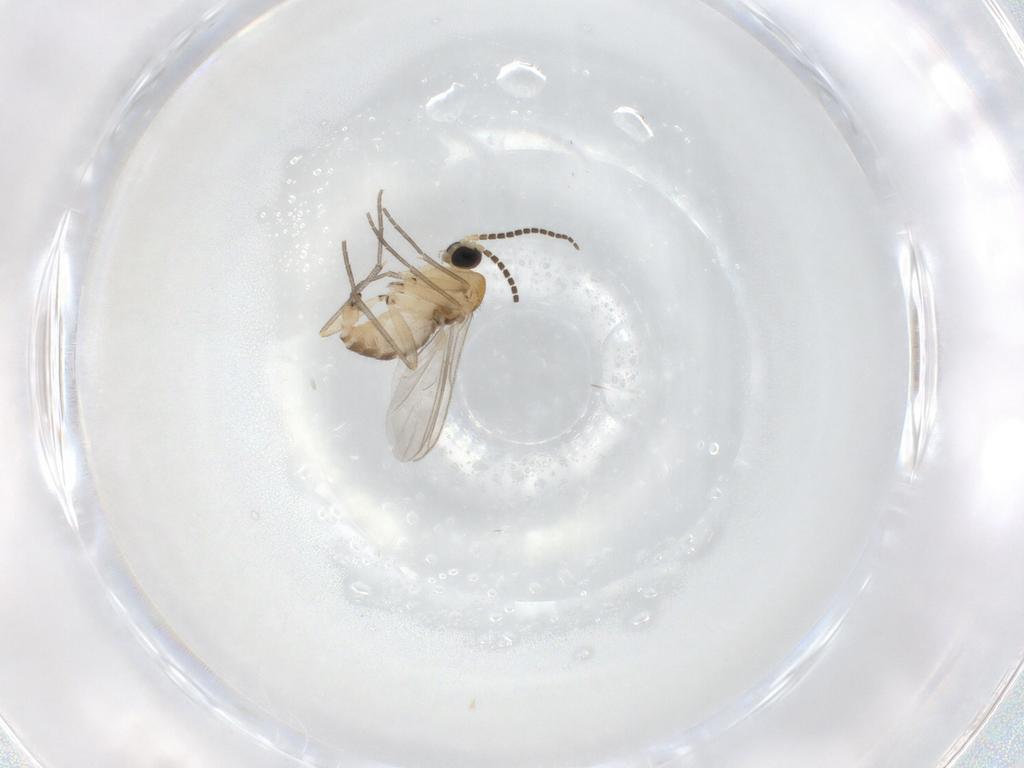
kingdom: Animalia
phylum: Arthropoda
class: Insecta
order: Diptera
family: Sciaridae
